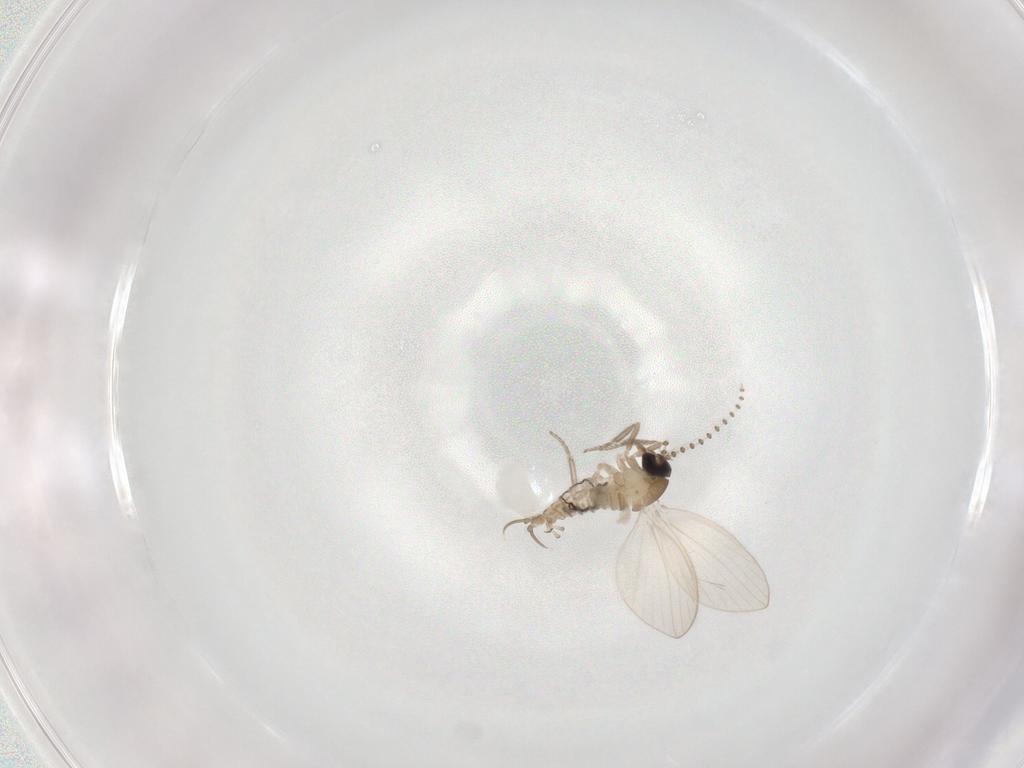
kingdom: Animalia
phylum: Arthropoda
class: Insecta
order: Diptera
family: Psychodidae
